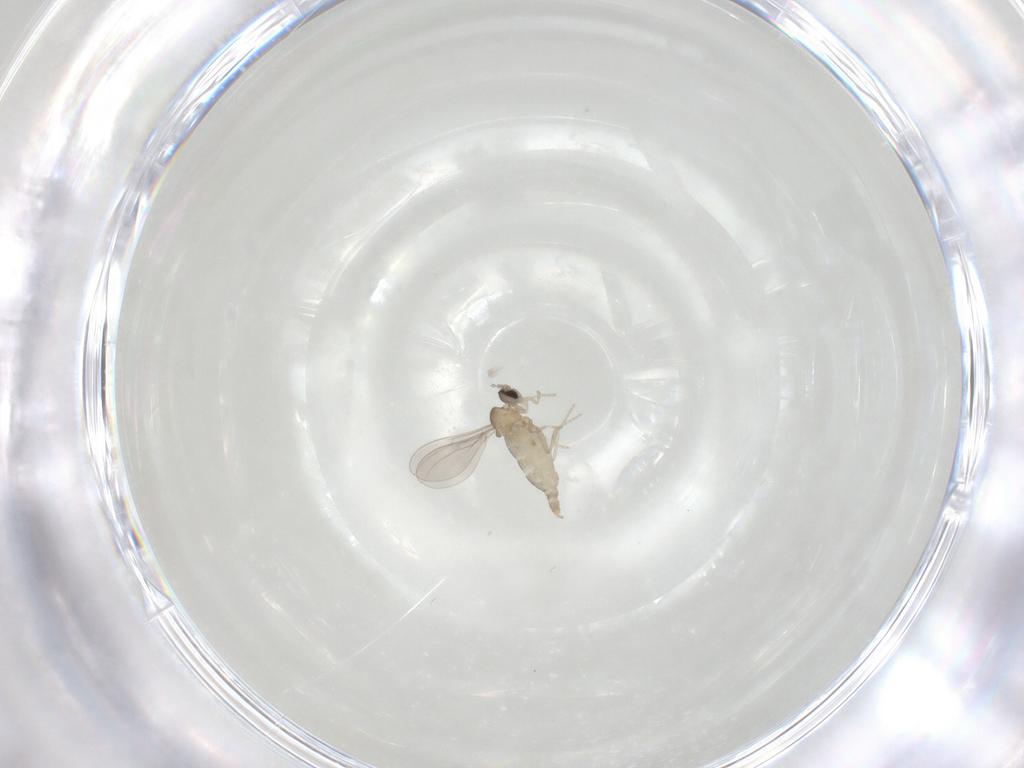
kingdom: Animalia
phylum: Arthropoda
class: Insecta
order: Diptera
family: Cecidomyiidae
